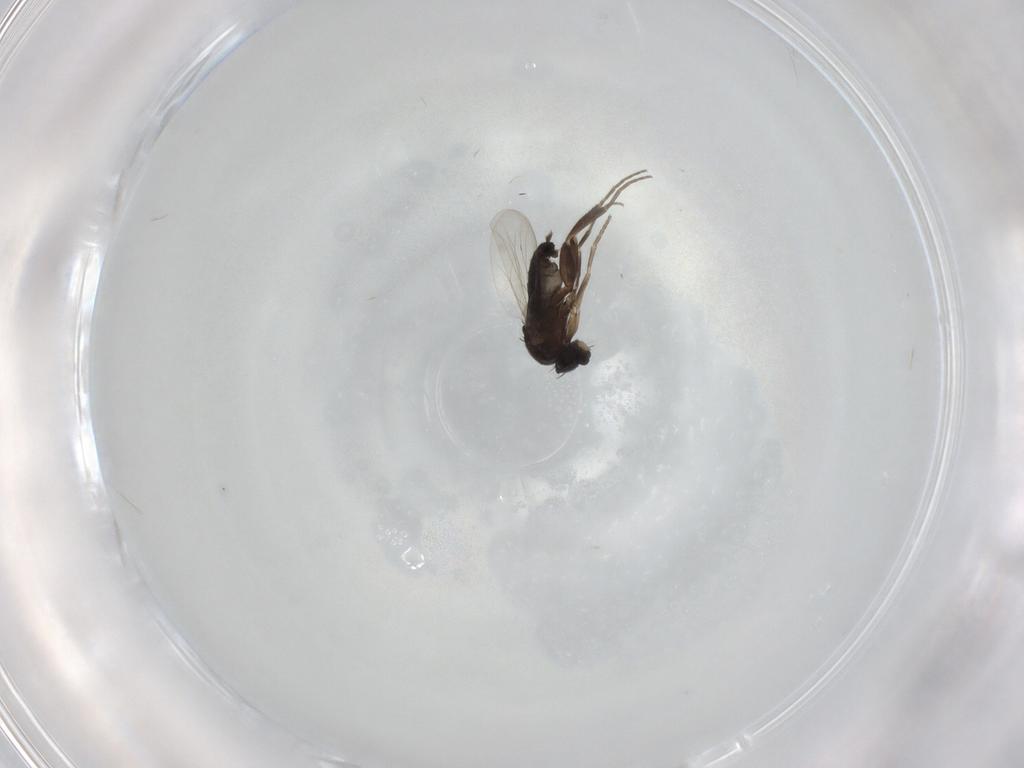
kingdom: Animalia
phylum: Arthropoda
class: Insecta
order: Diptera
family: Phoridae
